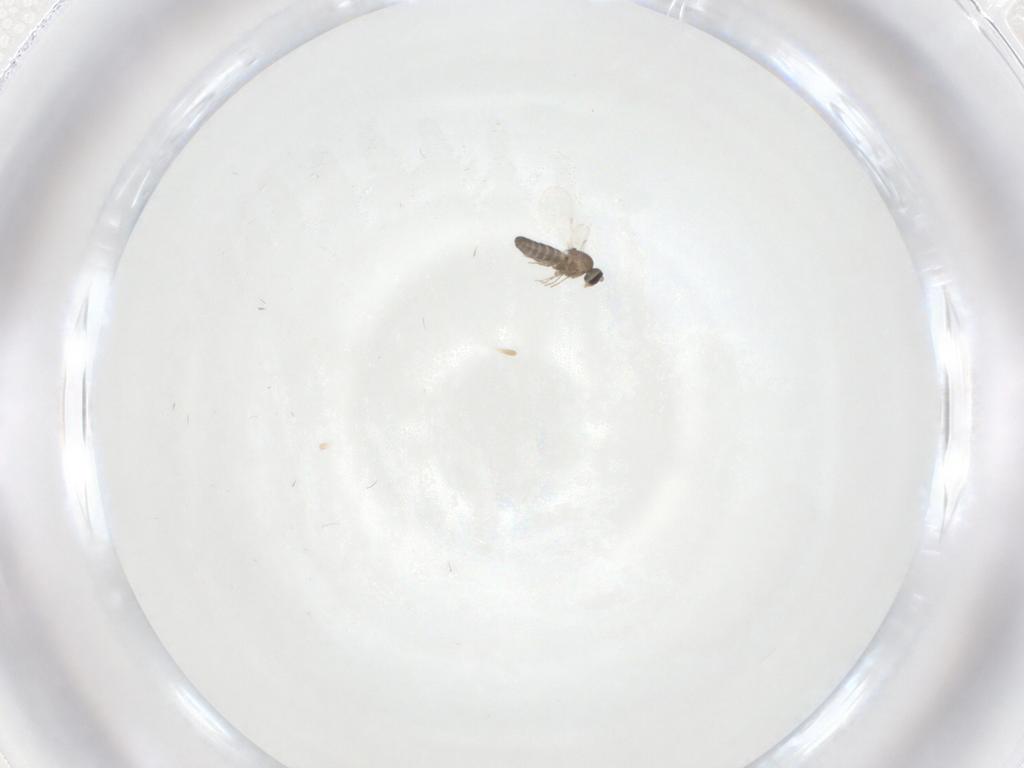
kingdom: Animalia
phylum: Arthropoda
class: Insecta
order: Diptera
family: Ceratopogonidae
